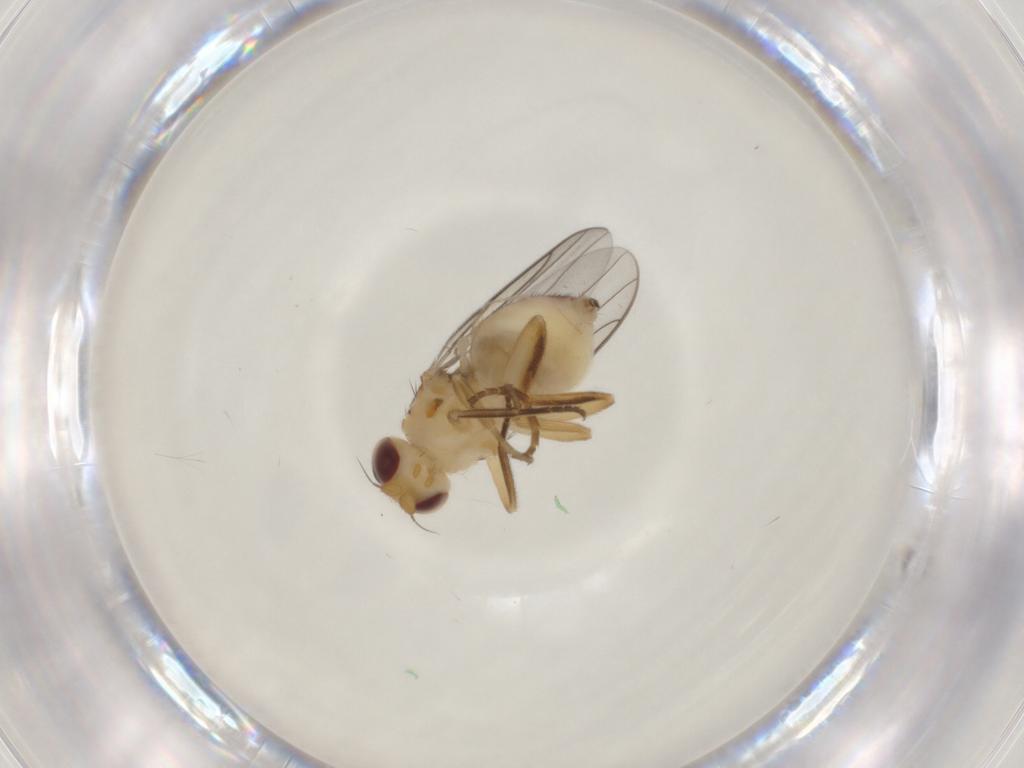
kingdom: Animalia
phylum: Arthropoda
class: Insecta
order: Diptera
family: Chloropidae
